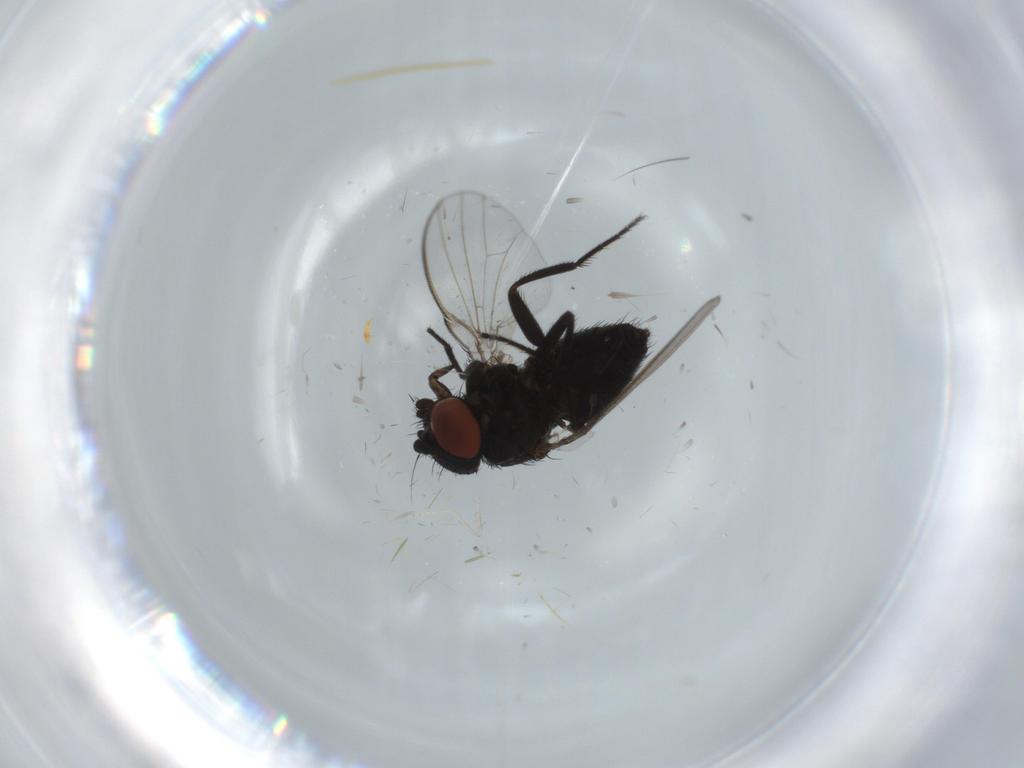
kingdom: Animalia
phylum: Arthropoda
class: Insecta
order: Diptera
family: Milichiidae
